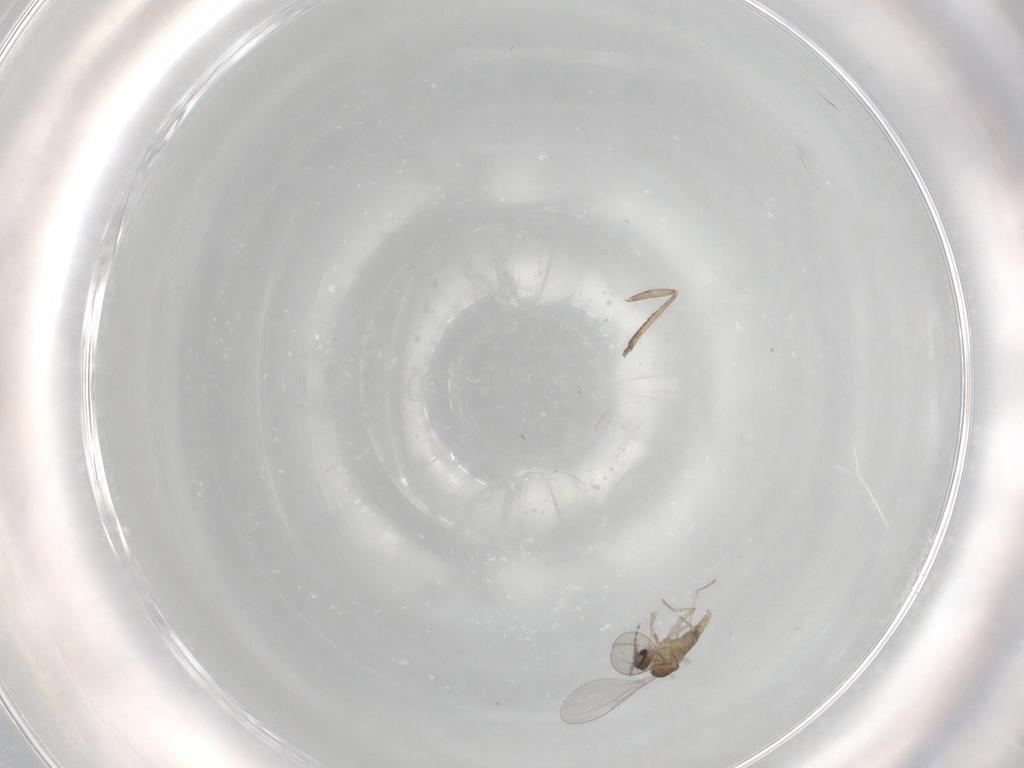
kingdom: Animalia
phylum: Arthropoda
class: Insecta
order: Diptera
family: Cecidomyiidae
